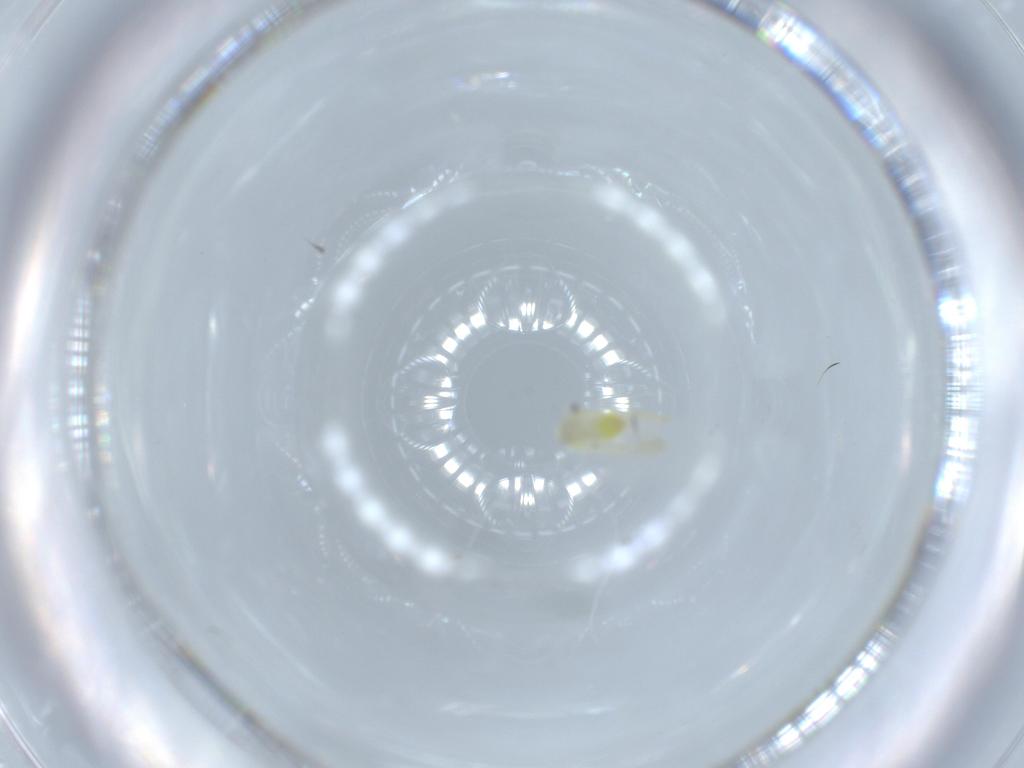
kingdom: Animalia
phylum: Arthropoda
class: Insecta
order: Hemiptera
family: Aleyrodidae
